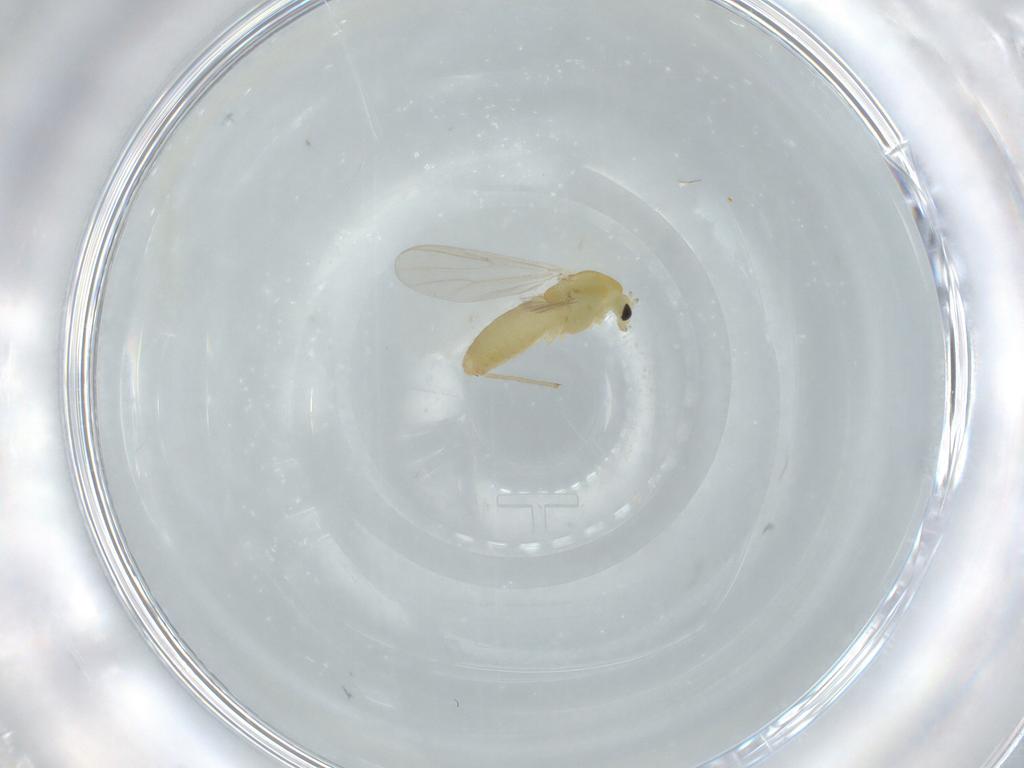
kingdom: Animalia
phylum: Arthropoda
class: Insecta
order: Diptera
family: Chironomidae
